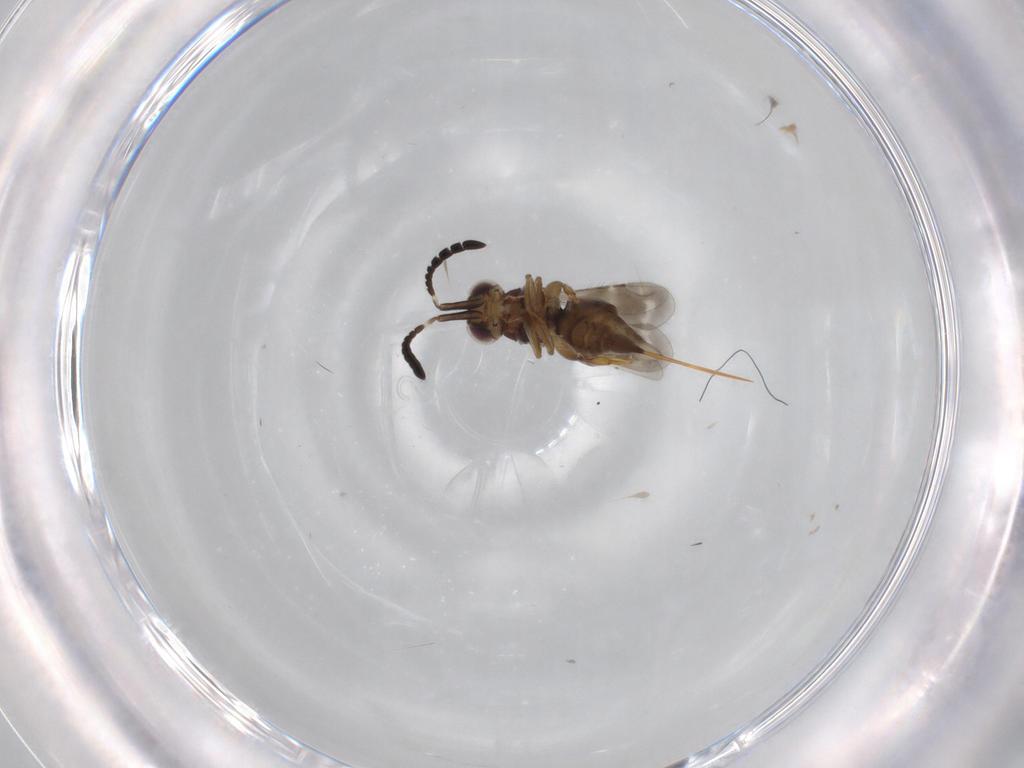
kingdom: Animalia
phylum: Arthropoda
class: Insecta
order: Hymenoptera
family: Ceraphronidae
